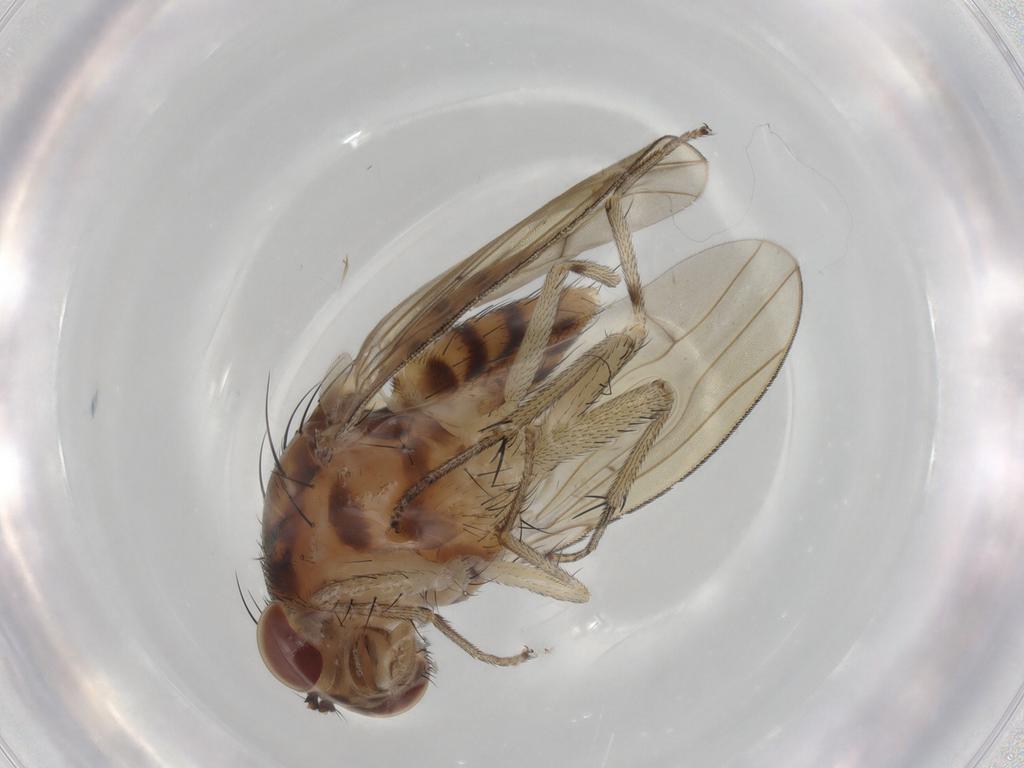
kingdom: Animalia
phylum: Arthropoda
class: Insecta
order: Diptera
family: Lauxaniidae
